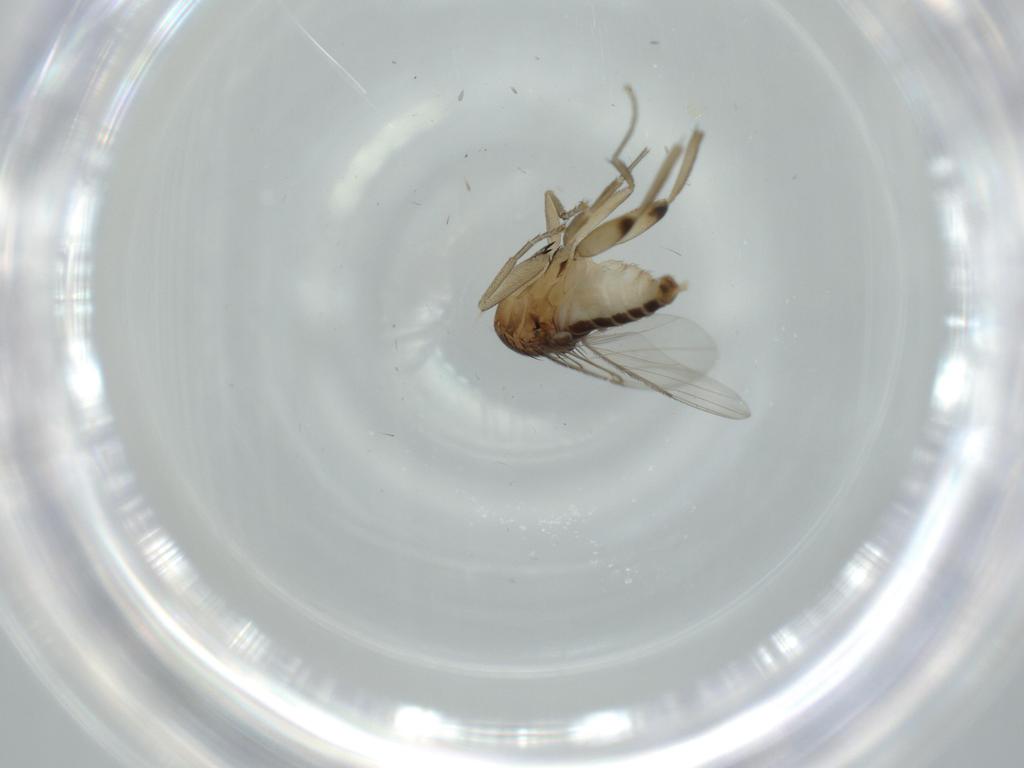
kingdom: Animalia
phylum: Arthropoda
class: Insecta
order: Diptera
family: Phoridae
